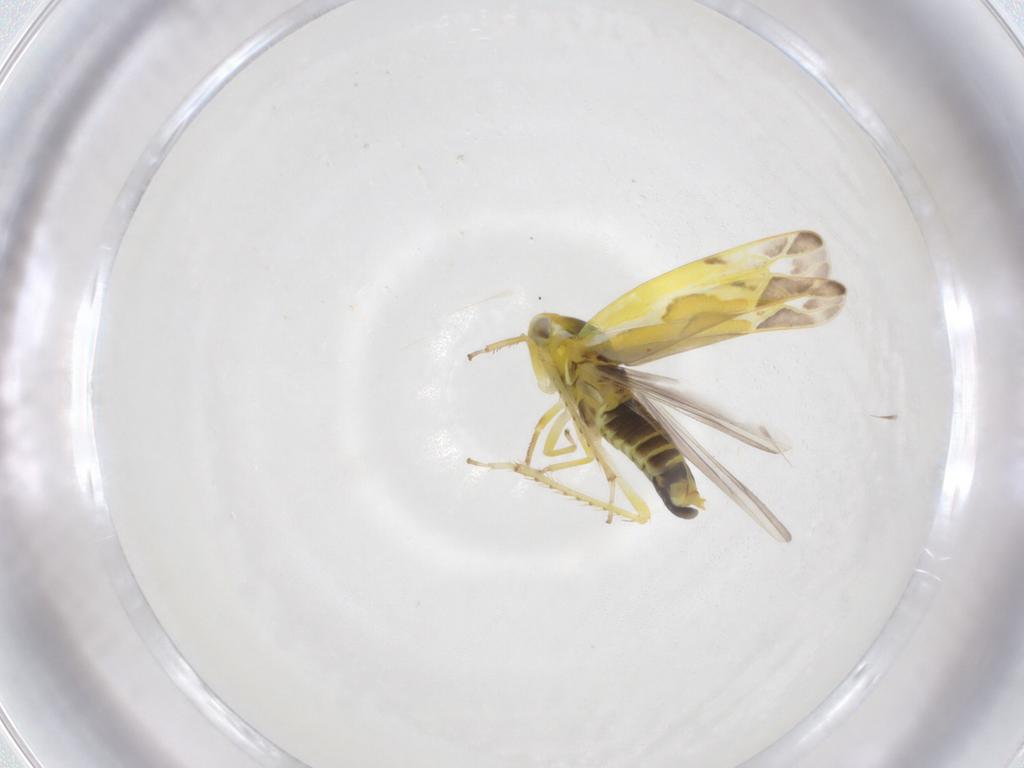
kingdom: Animalia
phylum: Arthropoda
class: Insecta
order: Hemiptera
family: Cicadellidae
